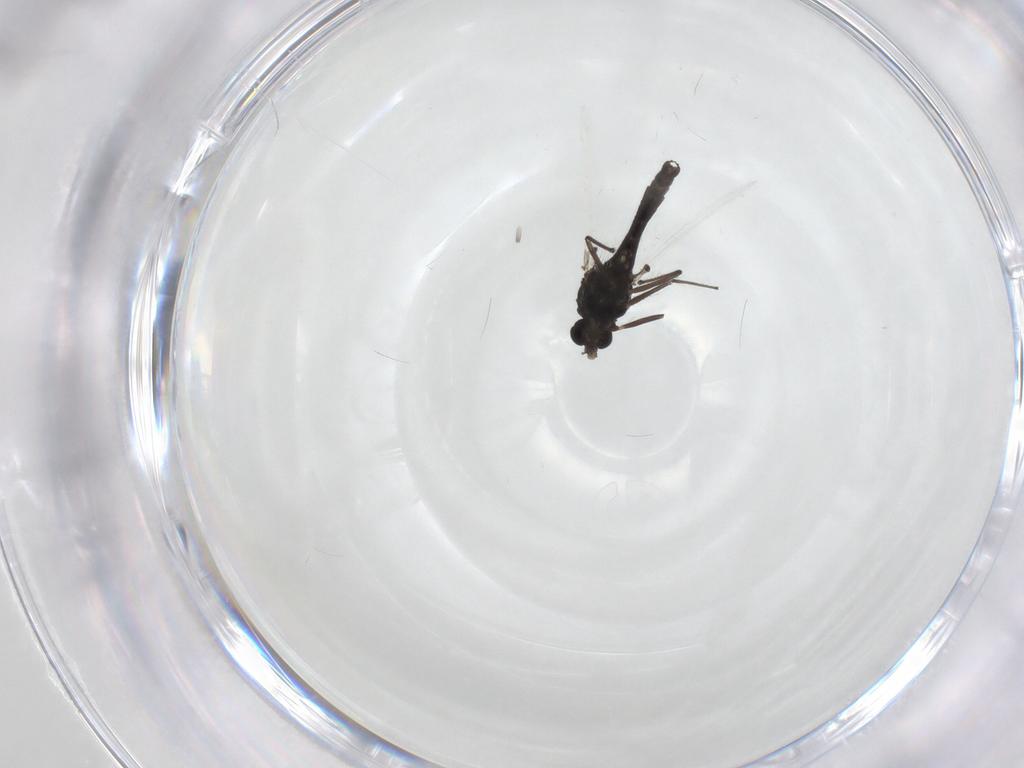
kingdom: Animalia
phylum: Arthropoda
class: Insecta
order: Diptera
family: Chironomidae
